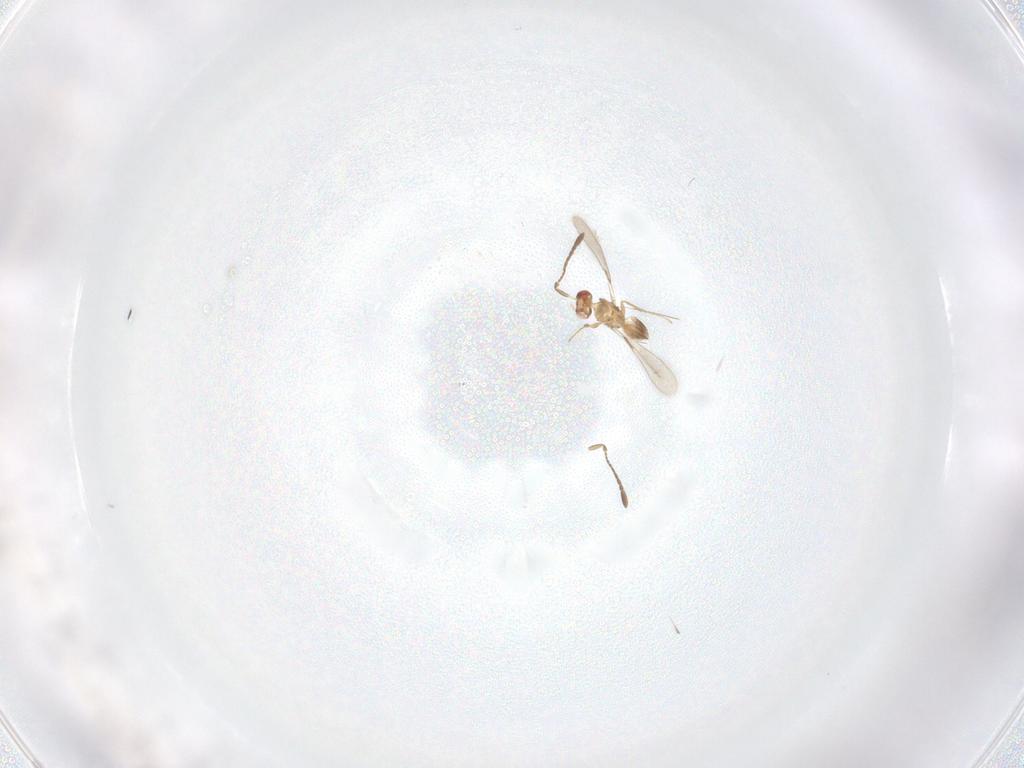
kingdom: Animalia
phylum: Arthropoda
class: Insecta
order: Hymenoptera
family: Scelionidae
